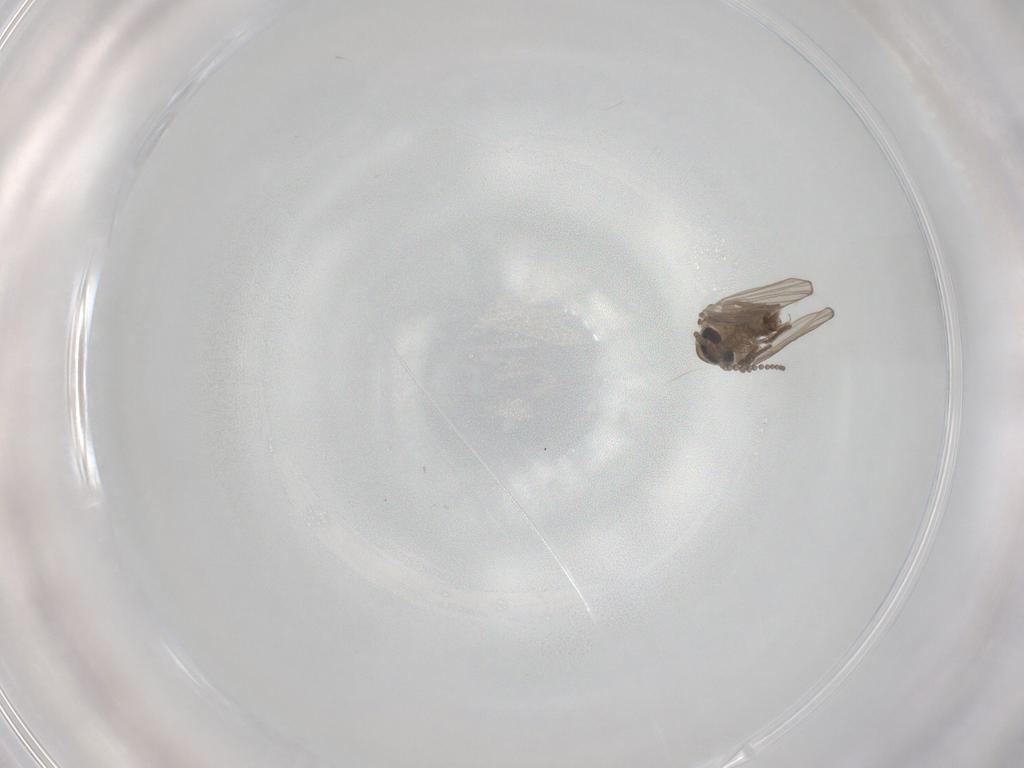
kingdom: Animalia
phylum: Arthropoda
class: Insecta
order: Diptera
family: Psychodidae
